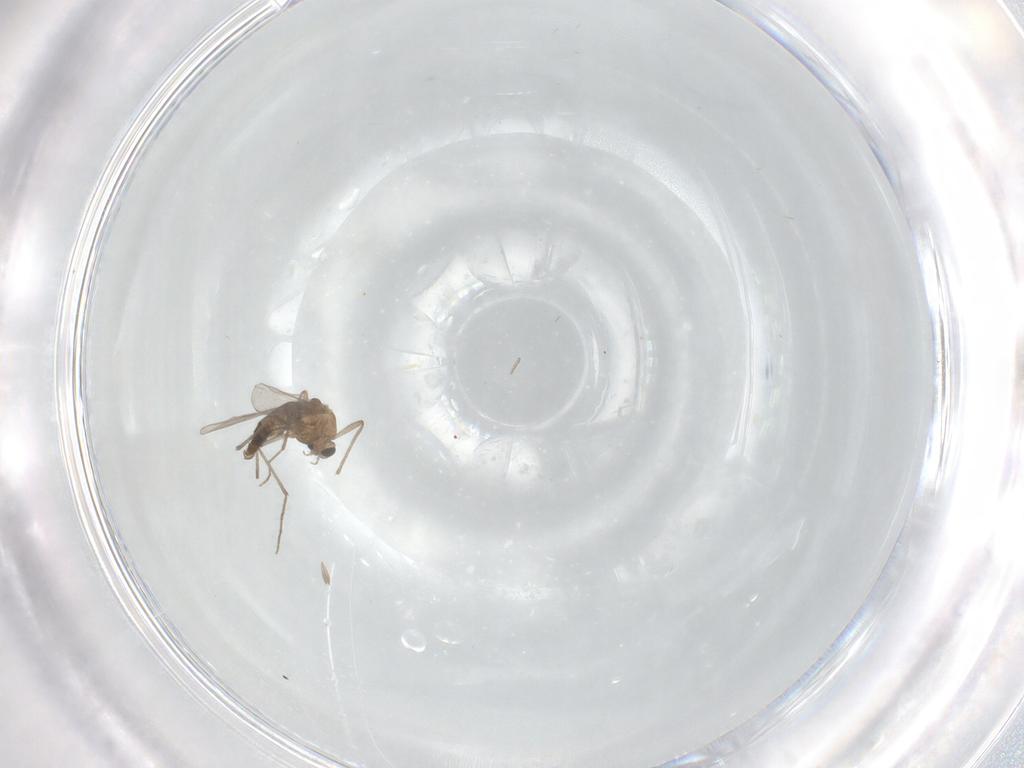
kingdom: Animalia
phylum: Arthropoda
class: Insecta
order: Diptera
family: Chironomidae
